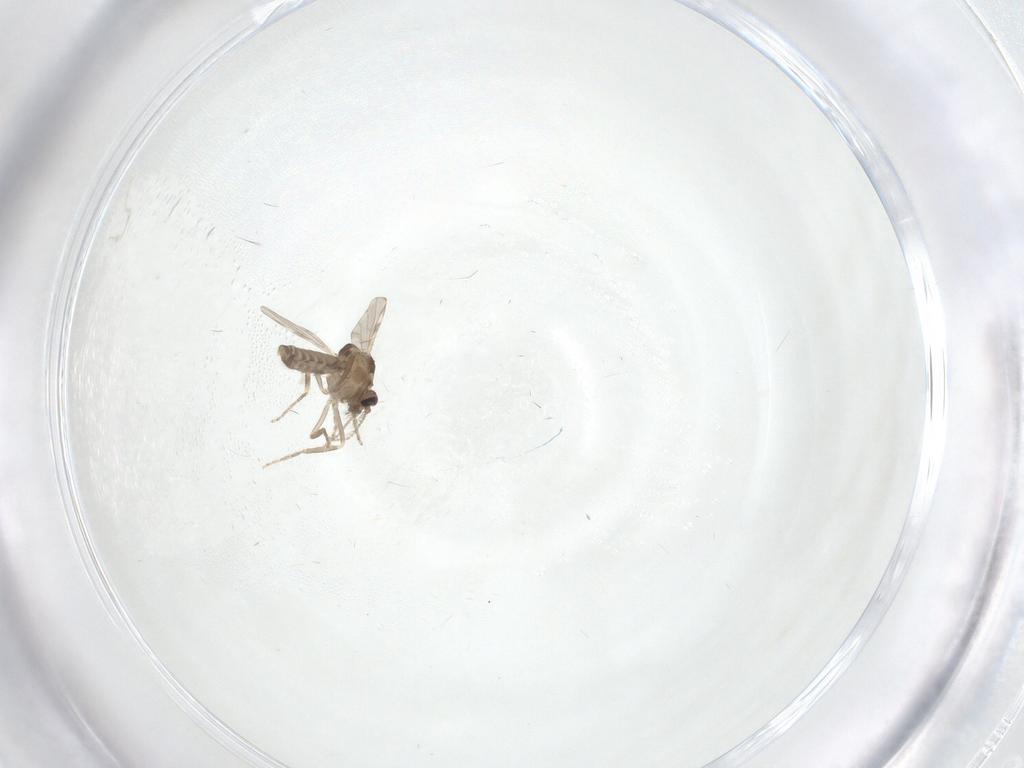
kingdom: Animalia
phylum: Arthropoda
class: Insecta
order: Diptera
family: Ceratopogonidae
